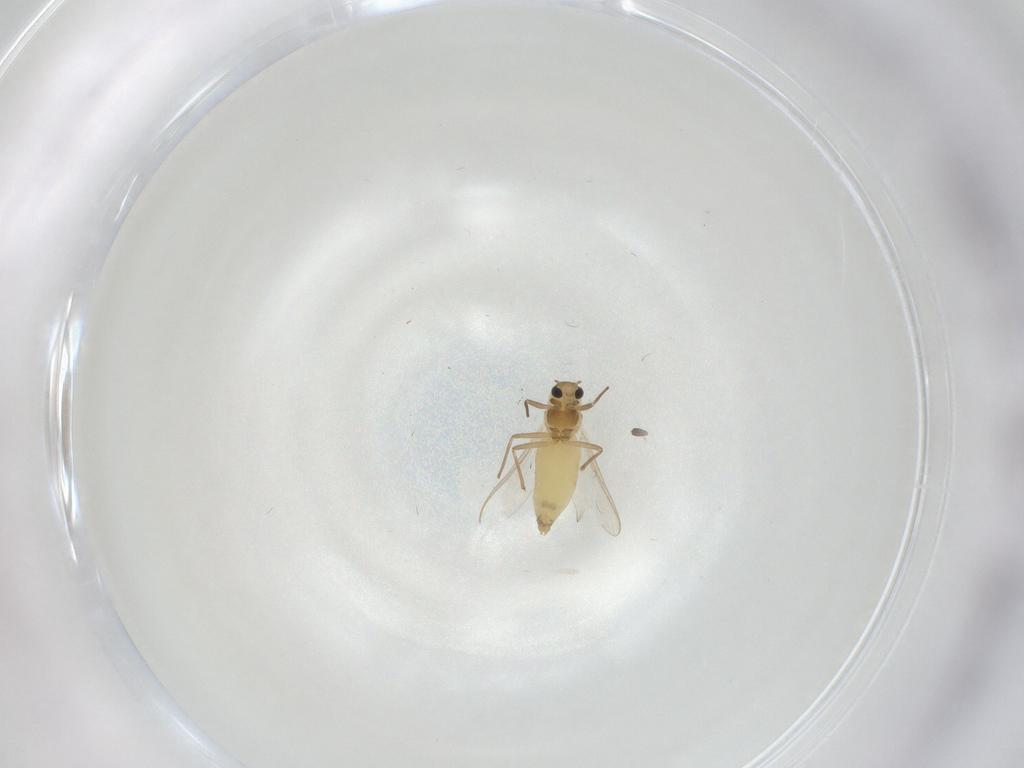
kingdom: Animalia
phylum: Arthropoda
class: Insecta
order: Diptera
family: Chironomidae
